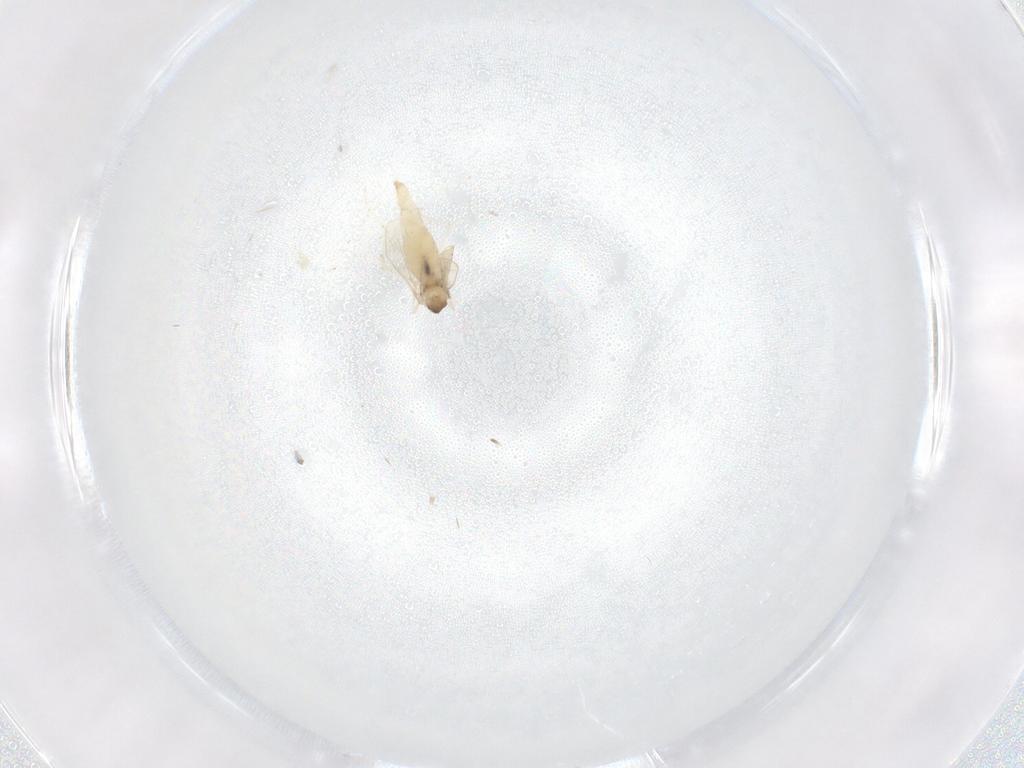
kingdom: Animalia
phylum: Arthropoda
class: Insecta
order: Diptera
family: Cecidomyiidae
